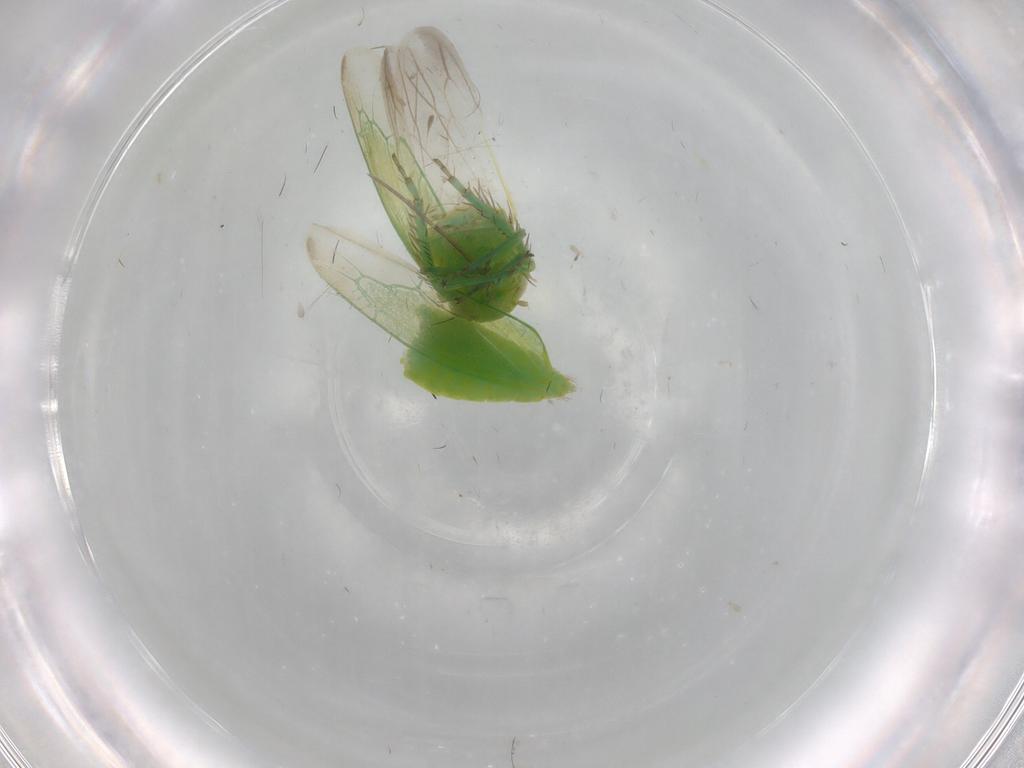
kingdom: Animalia
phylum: Arthropoda
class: Insecta
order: Hemiptera
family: Cicadellidae
